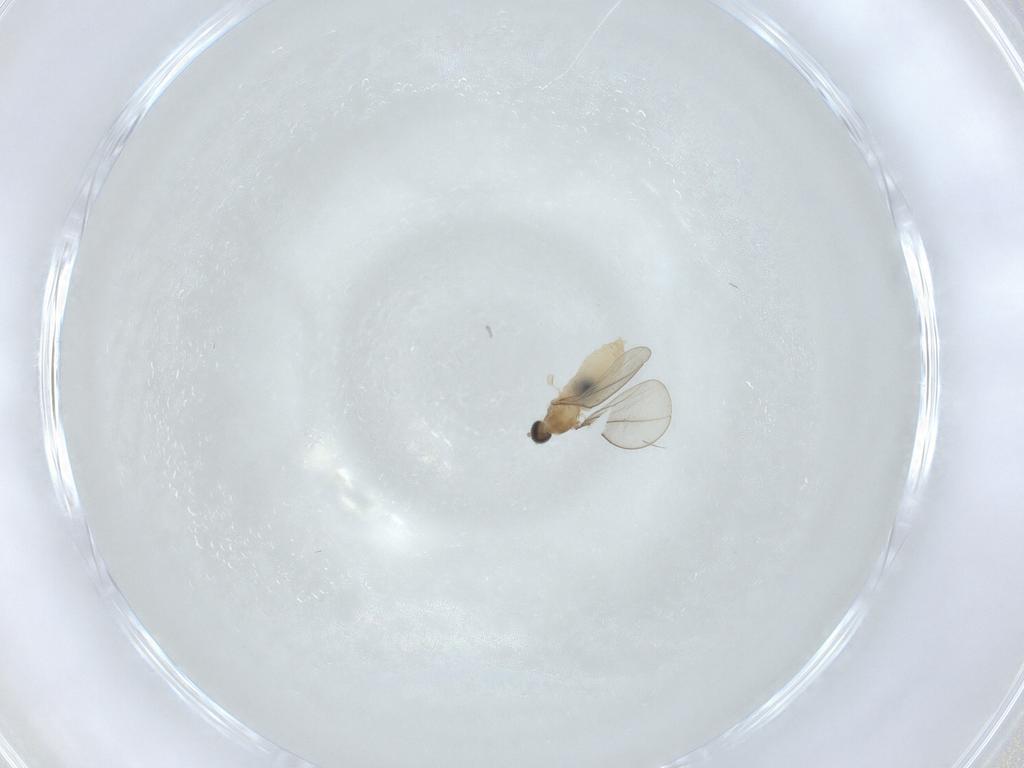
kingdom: Animalia
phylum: Arthropoda
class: Insecta
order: Diptera
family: Cecidomyiidae
